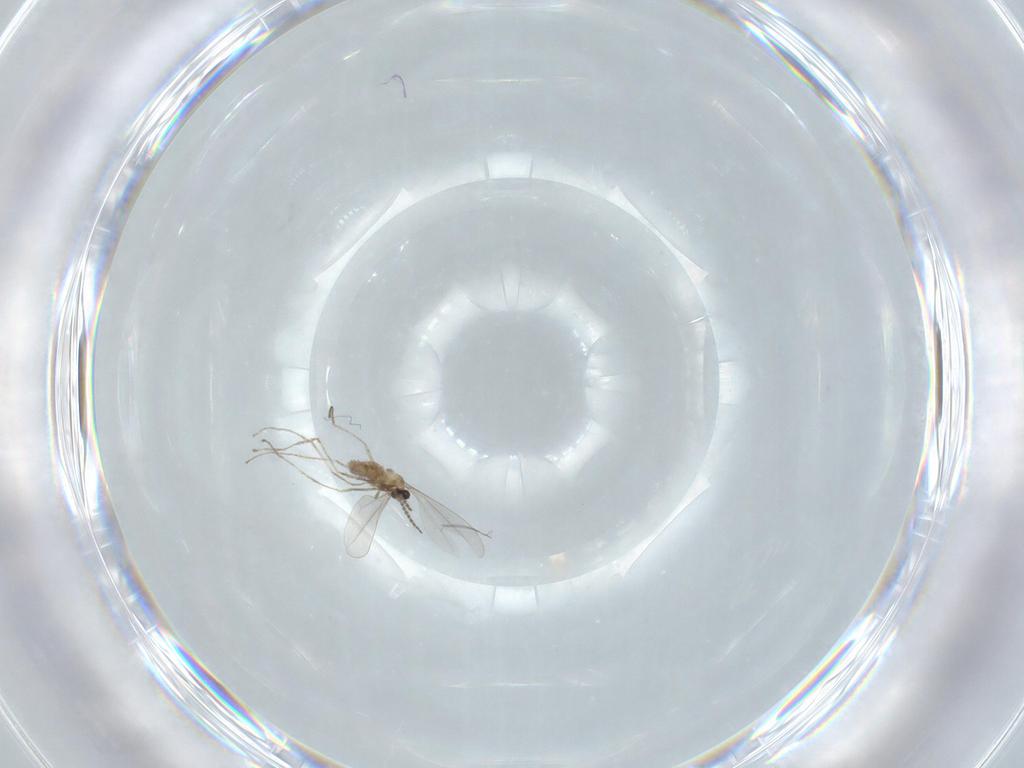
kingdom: Animalia
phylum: Arthropoda
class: Insecta
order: Diptera
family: Cecidomyiidae
